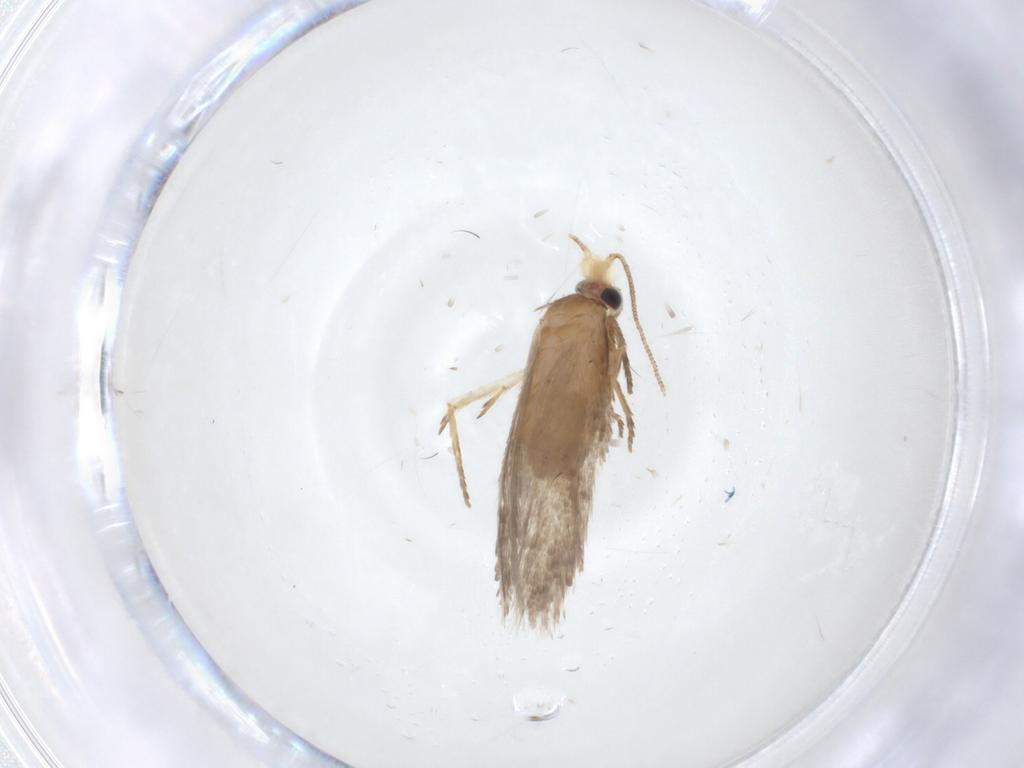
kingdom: Animalia
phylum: Arthropoda
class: Insecta
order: Lepidoptera
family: Nepticulidae
